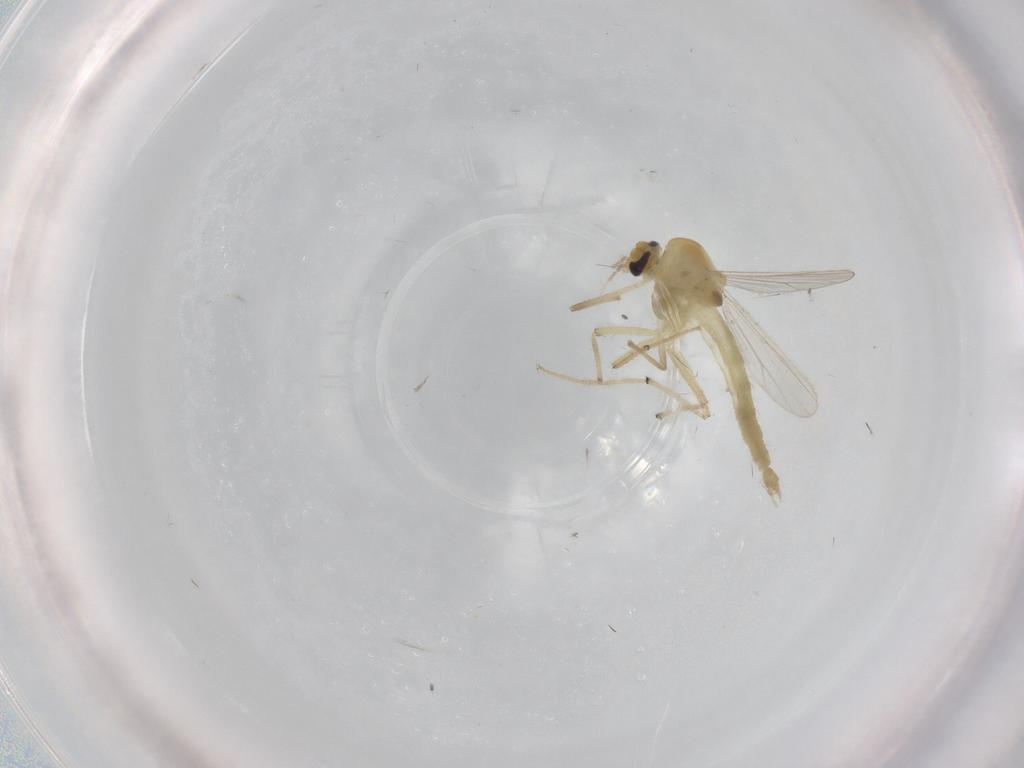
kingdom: Animalia
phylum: Arthropoda
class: Insecta
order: Diptera
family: Chironomidae
